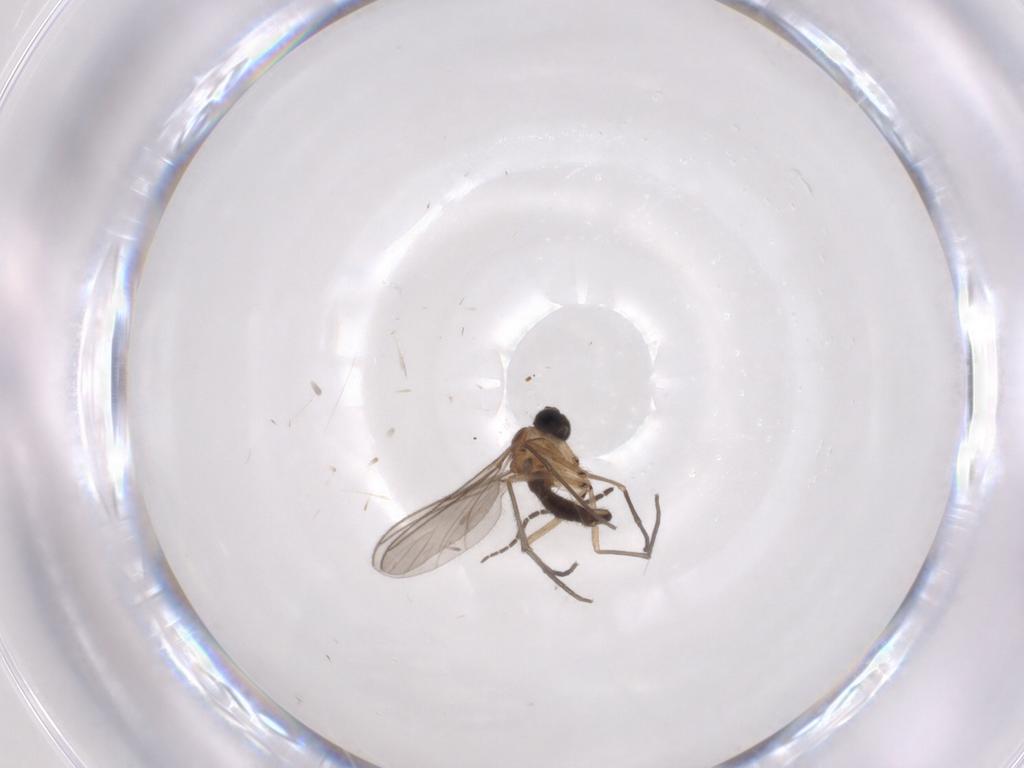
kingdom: Animalia
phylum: Arthropoda
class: Insecta
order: Diptera
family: Sciaridae
